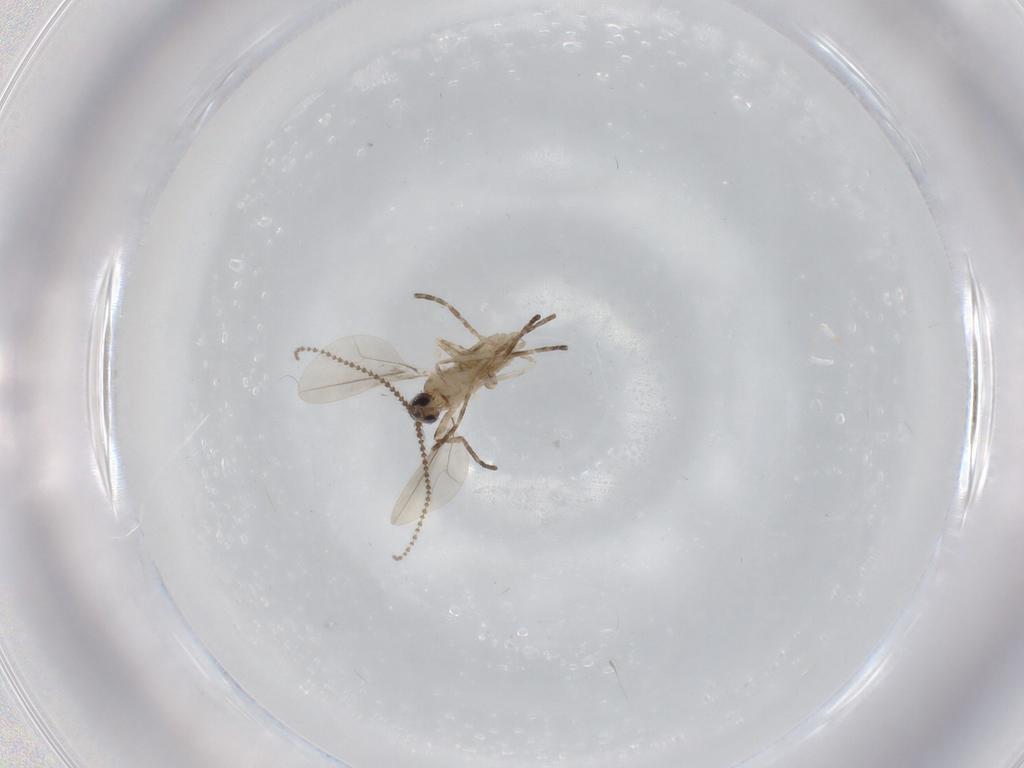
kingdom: Animalia
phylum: Arthropoda
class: Insecta
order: Diptera
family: Cecidomyiidae
